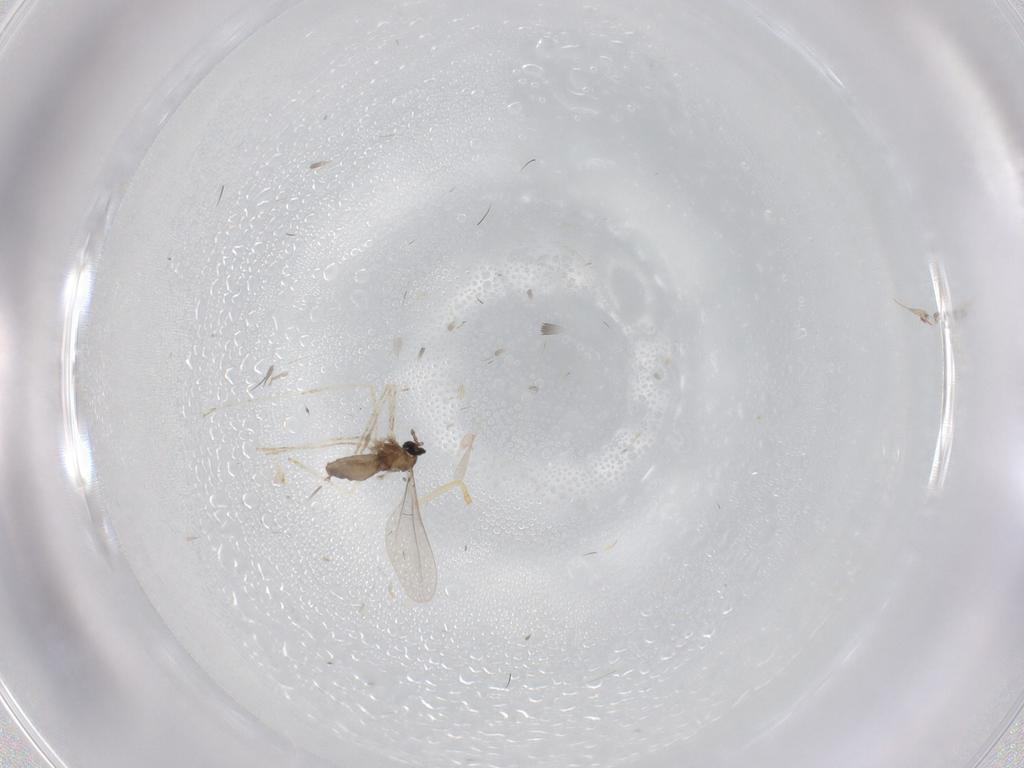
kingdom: Animalia
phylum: Arthropoda
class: Insecta
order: Diptera
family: Dolichopodidae
